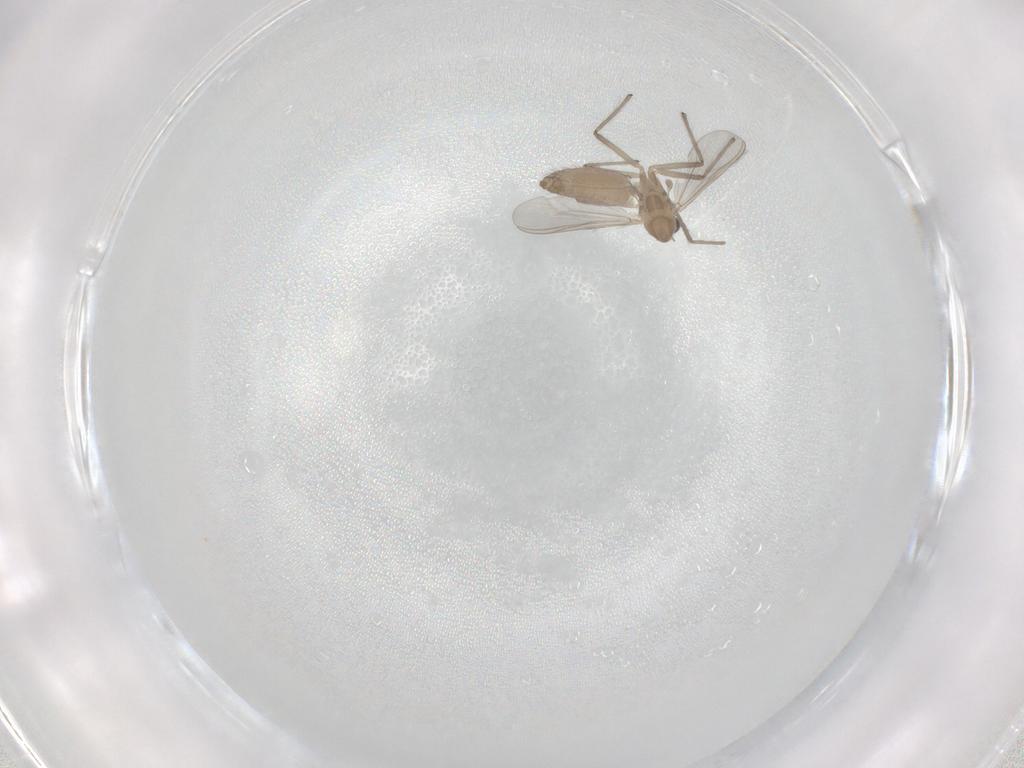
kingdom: Animalia
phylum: Arthropoda
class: Insecta
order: Diptera
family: Chironomidae
